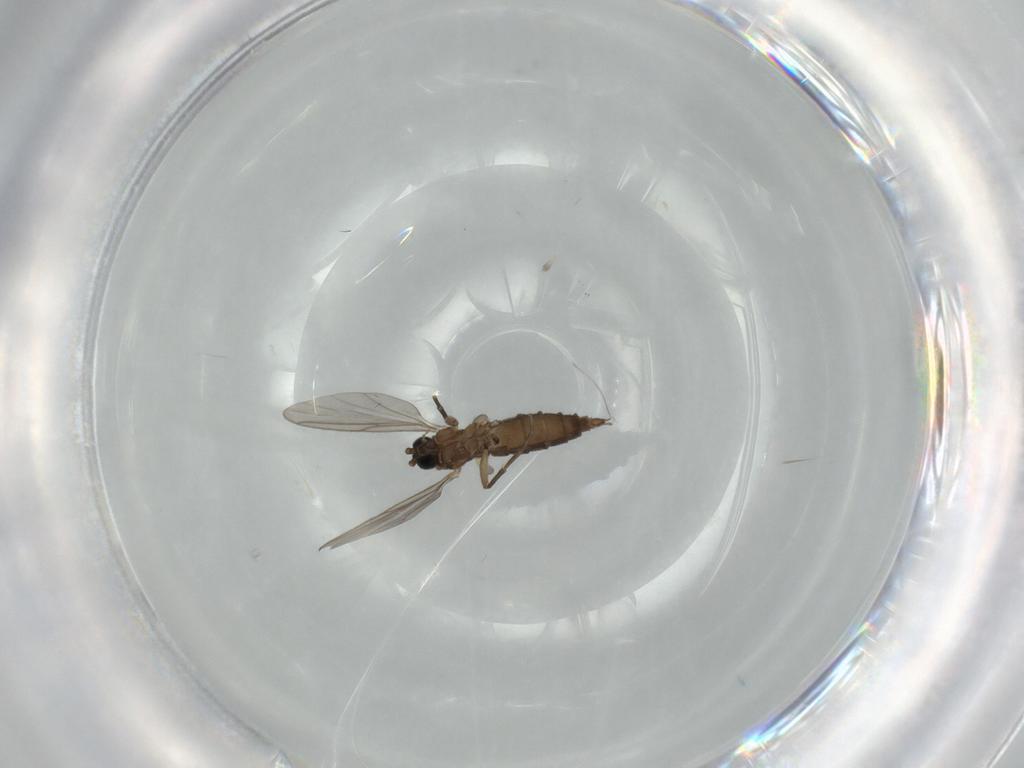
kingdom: Animalia
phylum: Arthropoda
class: Insecta
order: Diptera
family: Sciaridae
